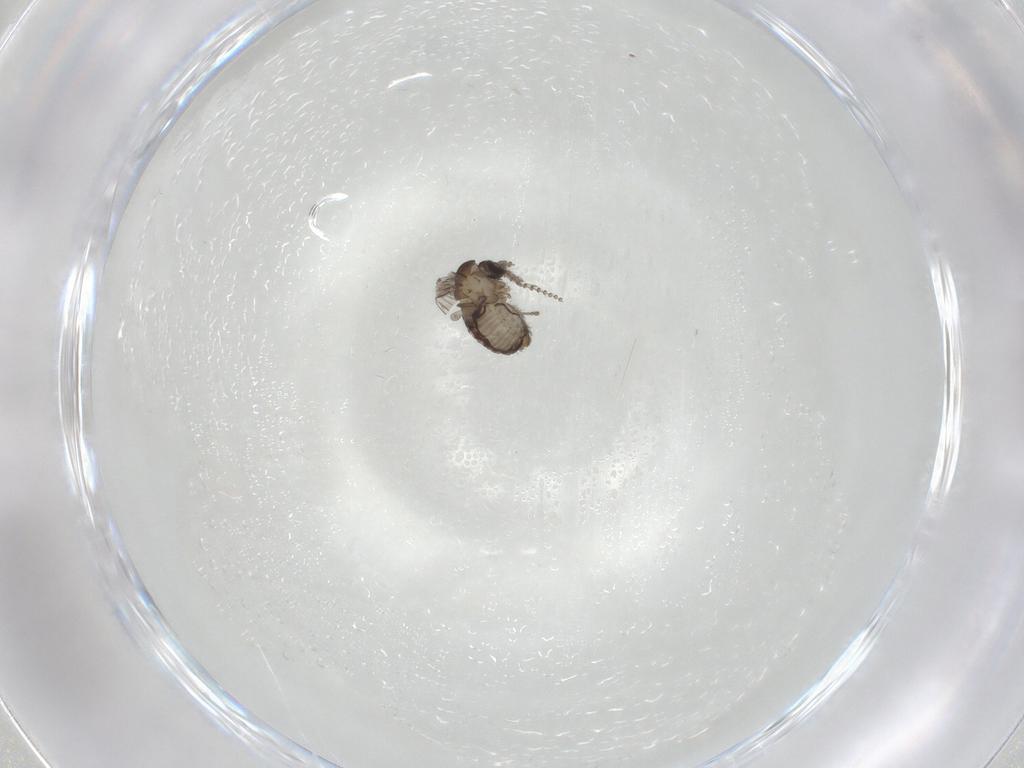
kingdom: Animalia
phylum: Arthropoda
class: Insecta
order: Diptera
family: Psychodidae
